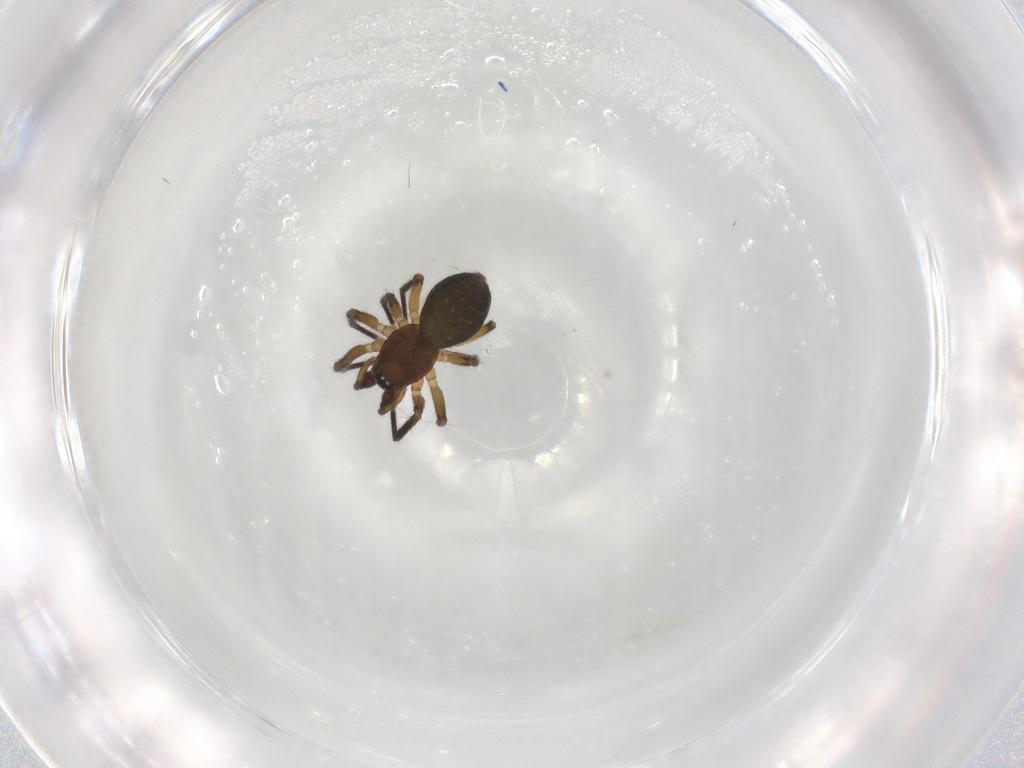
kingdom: Animalia
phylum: Arthropoda
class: Arachnida
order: Araneae
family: Linyphiidae
